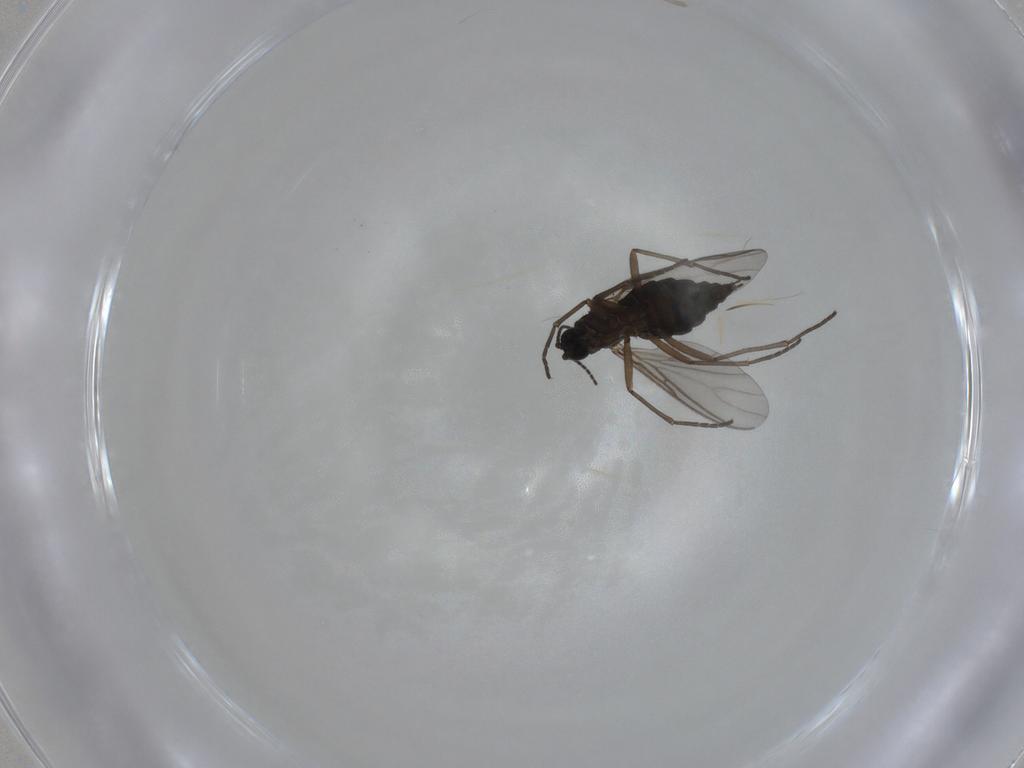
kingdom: Animalia
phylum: Arthropoda
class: Insecta
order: Diptera
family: Sciaridae
